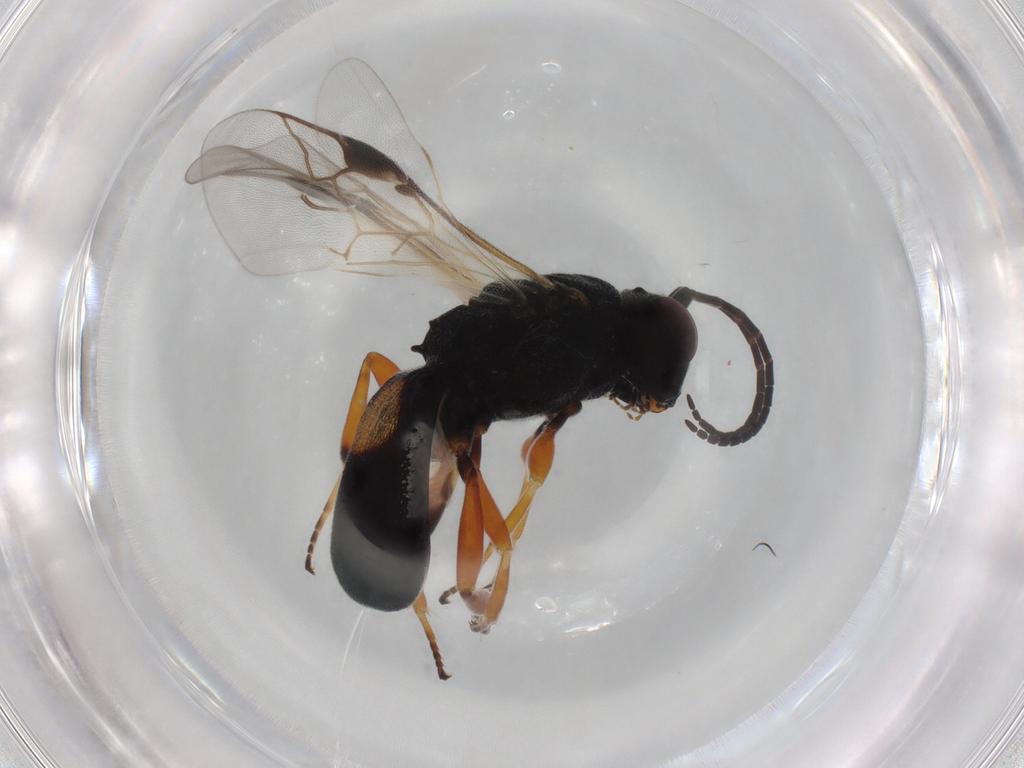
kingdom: Animalia
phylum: Arthropoda
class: Insecta
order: Hymenoptera
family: Braconidae
